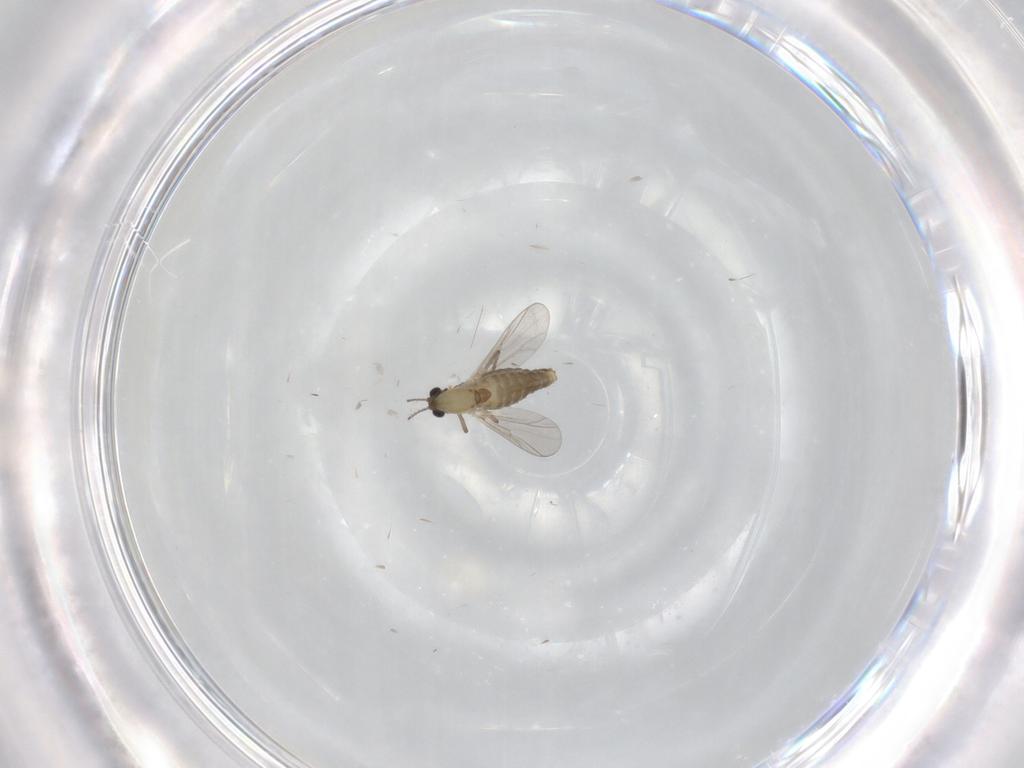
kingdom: Animalia
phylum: Arthropoda
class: Insecta
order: Diptera
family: Chironomidae
